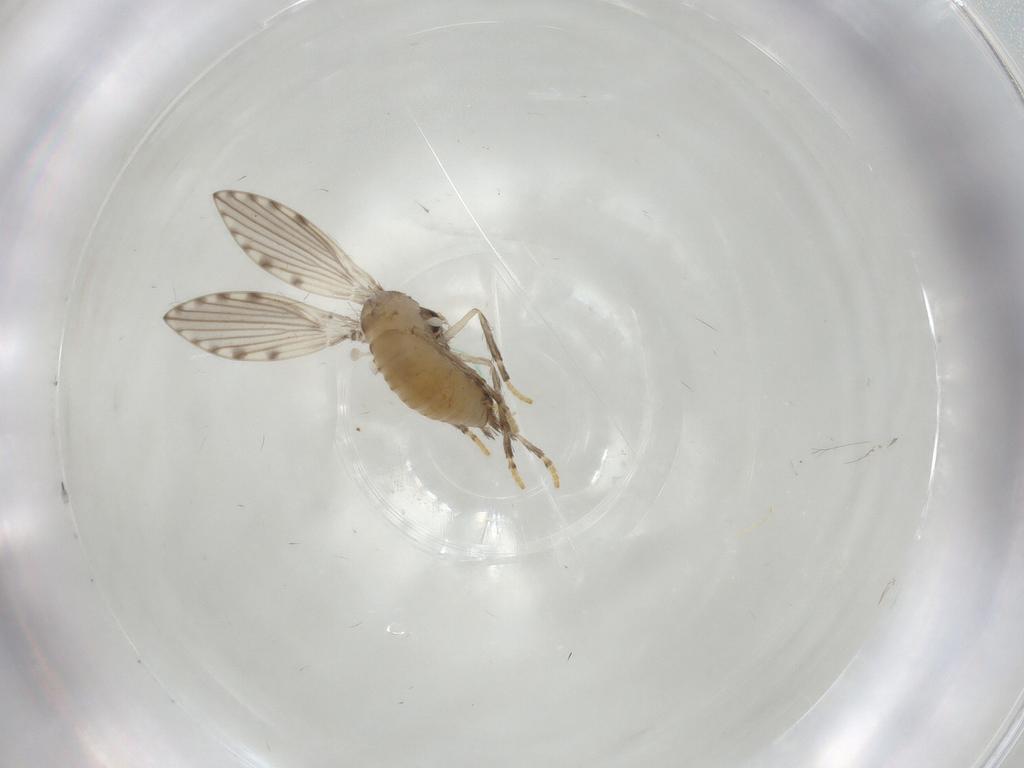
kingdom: Animalia
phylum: Arthropoda
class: Insecta
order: Diptera
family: Psychodidae
